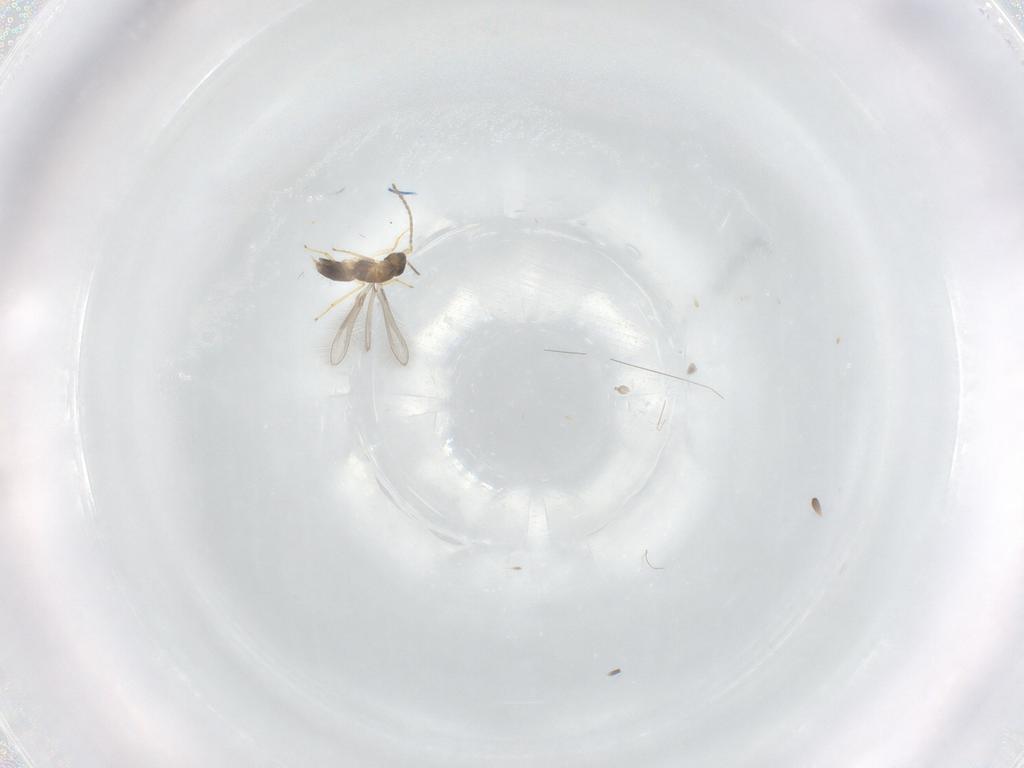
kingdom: Animalia
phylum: Arthropoda
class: Insecta
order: Hymenoptera
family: Mymaridae
